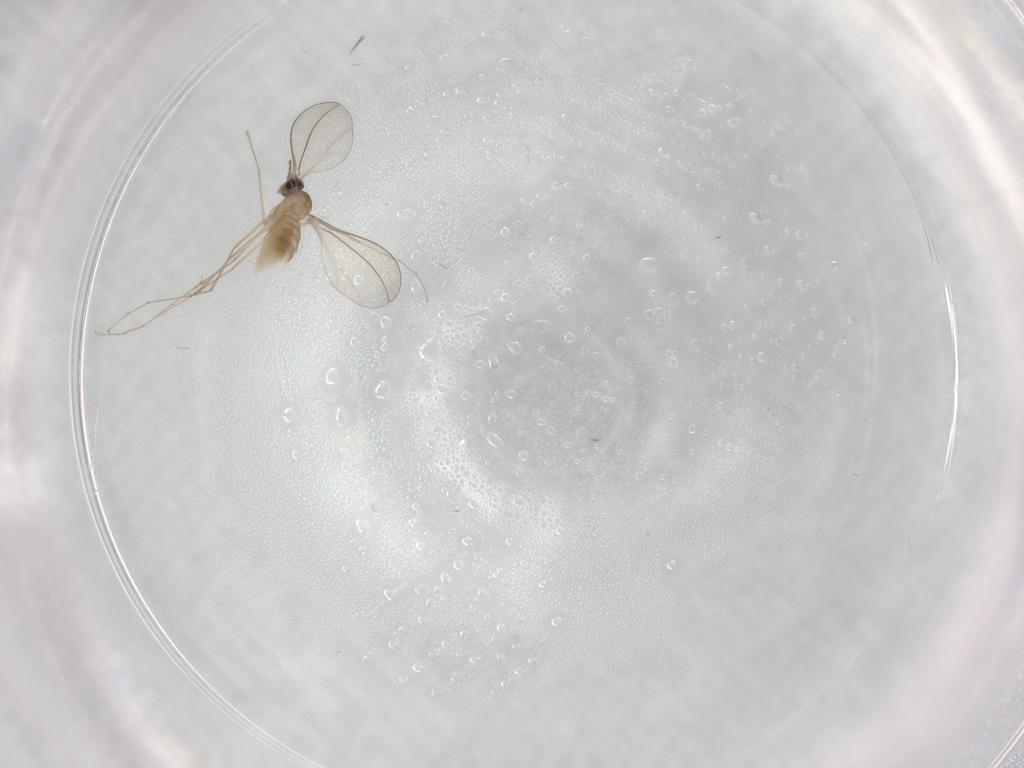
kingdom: Animalia
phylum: Arthropoda
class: Insecta
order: Diptera
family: Cecidomyiidae
